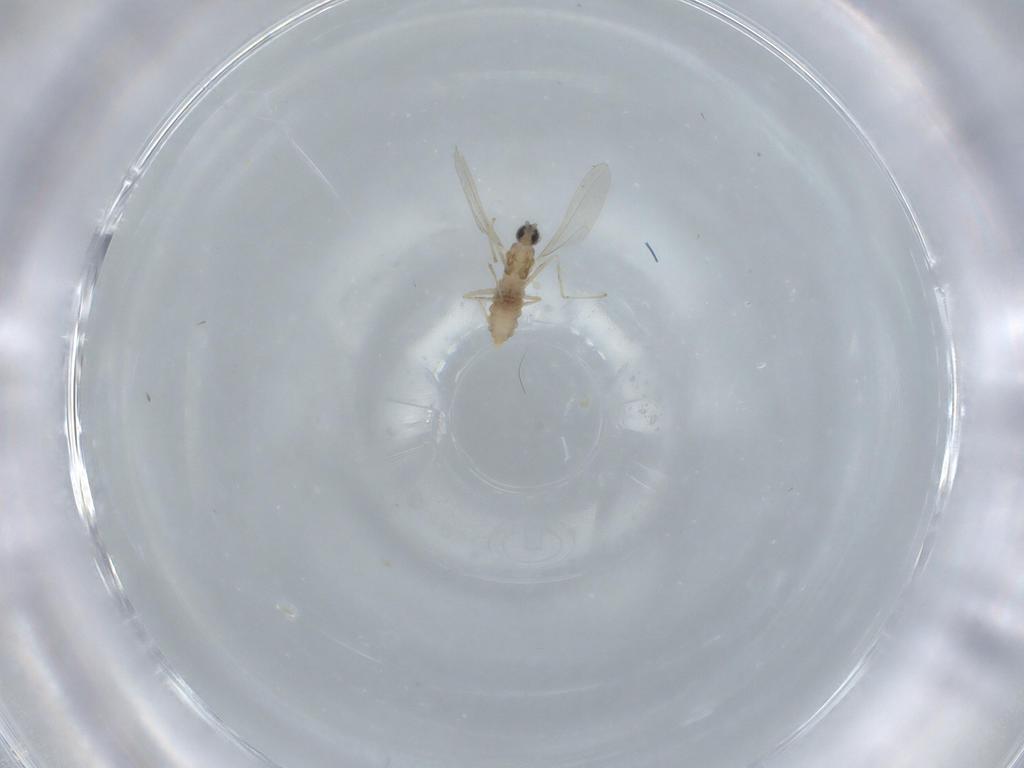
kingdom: Animalia
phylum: Arthropoda
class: Insecta
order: Diptera
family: Cecidomyiidae
